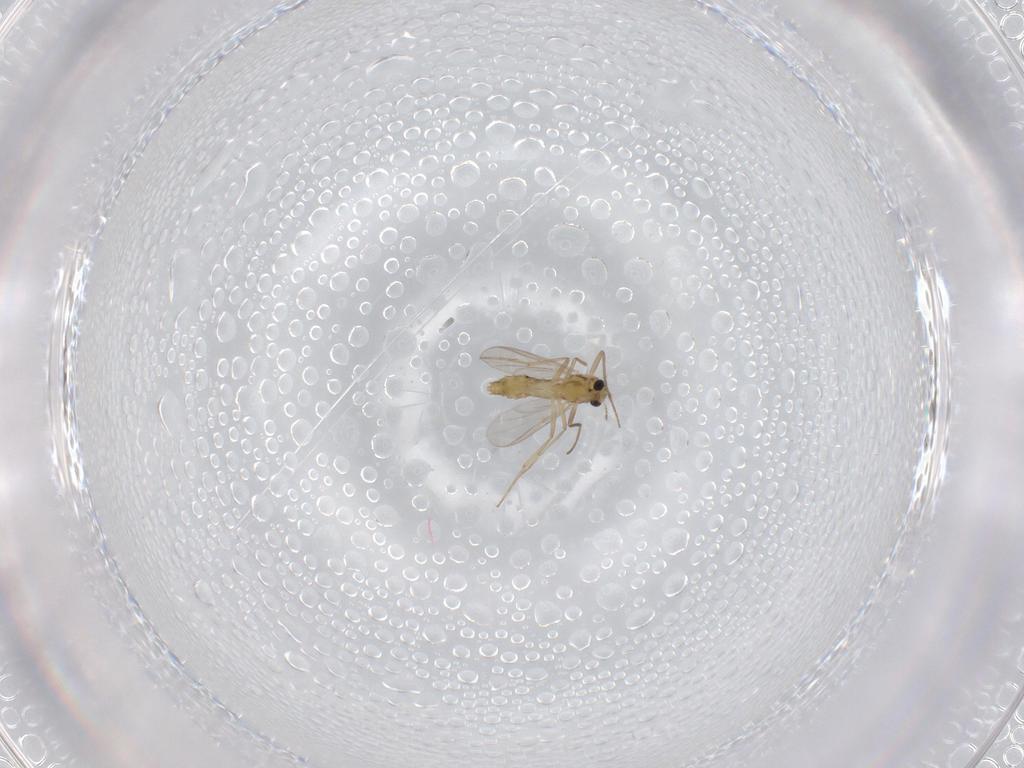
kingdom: Animalia
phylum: Arthropoda
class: Insecta
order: Diptera
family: Chironomidae
